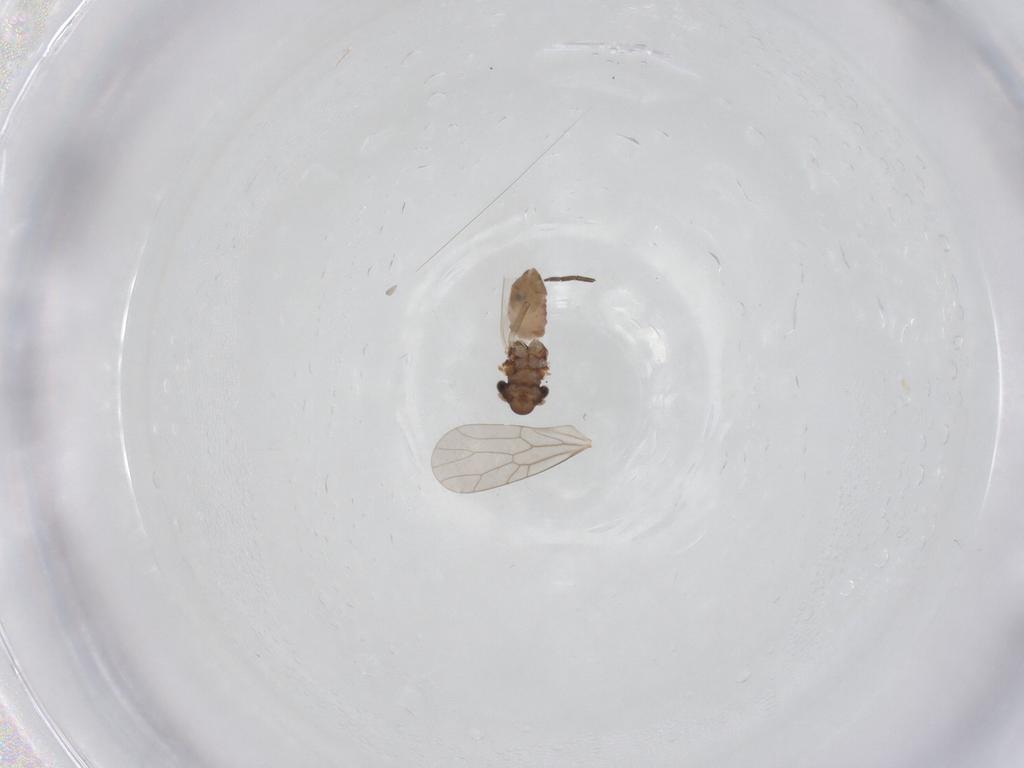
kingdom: Animalia
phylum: Arthropoda
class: Insecta
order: Psocodea
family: Lepidopsocidae
